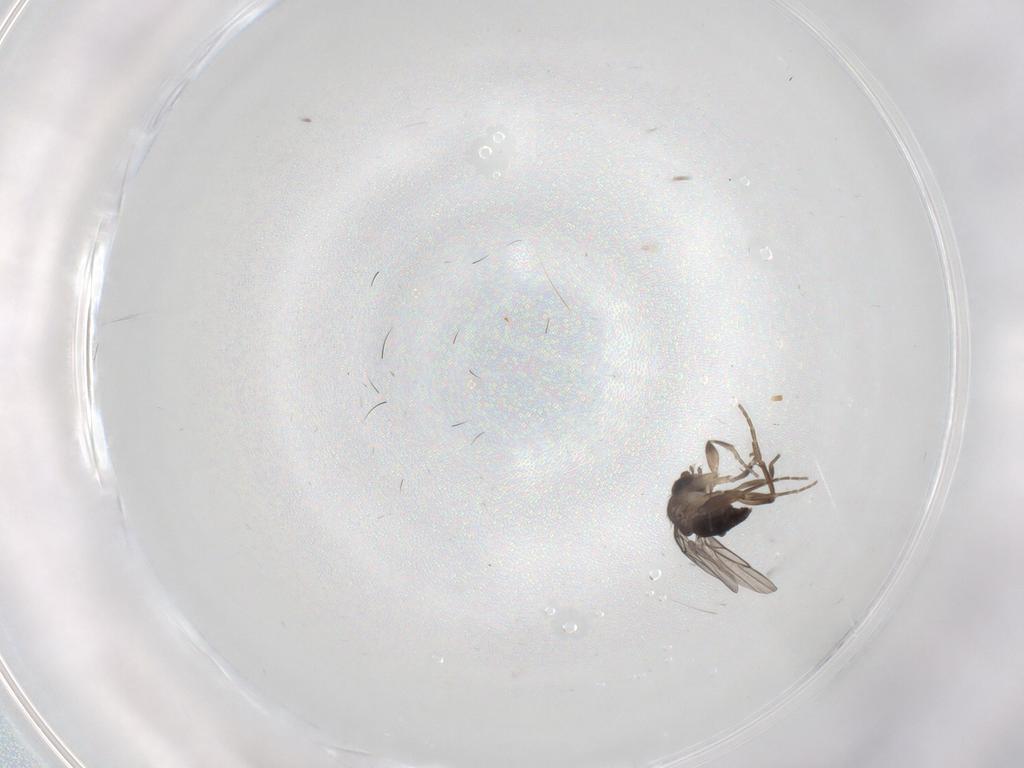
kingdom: Animalia
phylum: Arthropoda
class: Insecta
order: Diptera
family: Sciaridae
